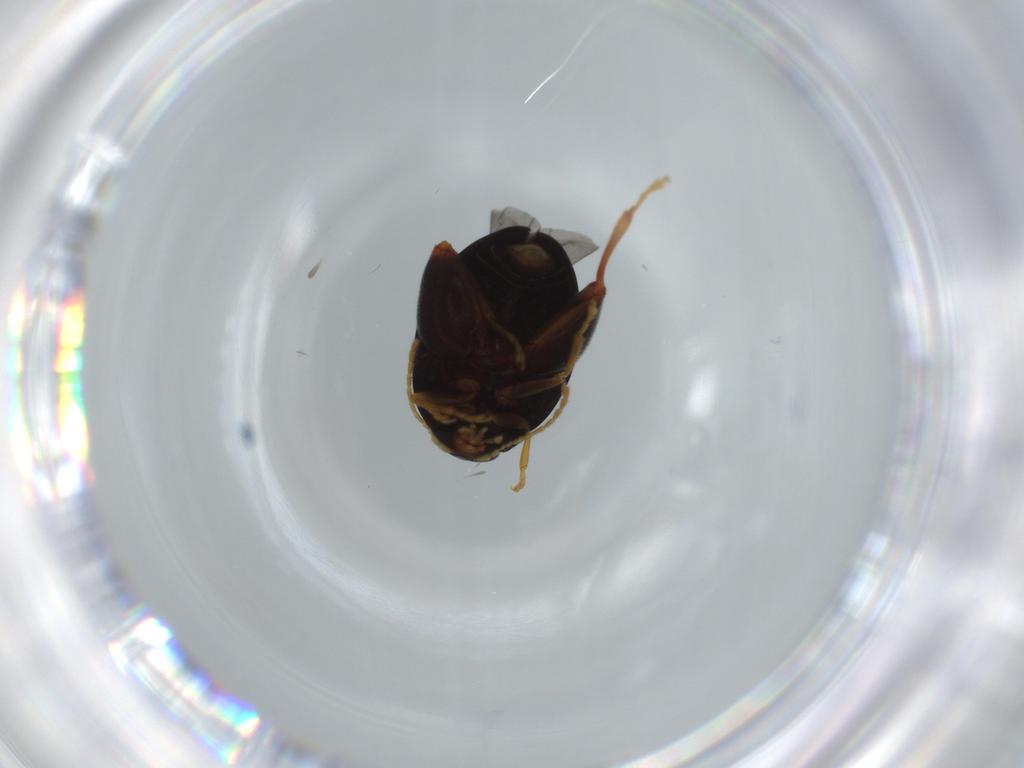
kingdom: Animalia
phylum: Arthropoda
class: Insecta
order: Coleoptera
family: Chrysomelidae
